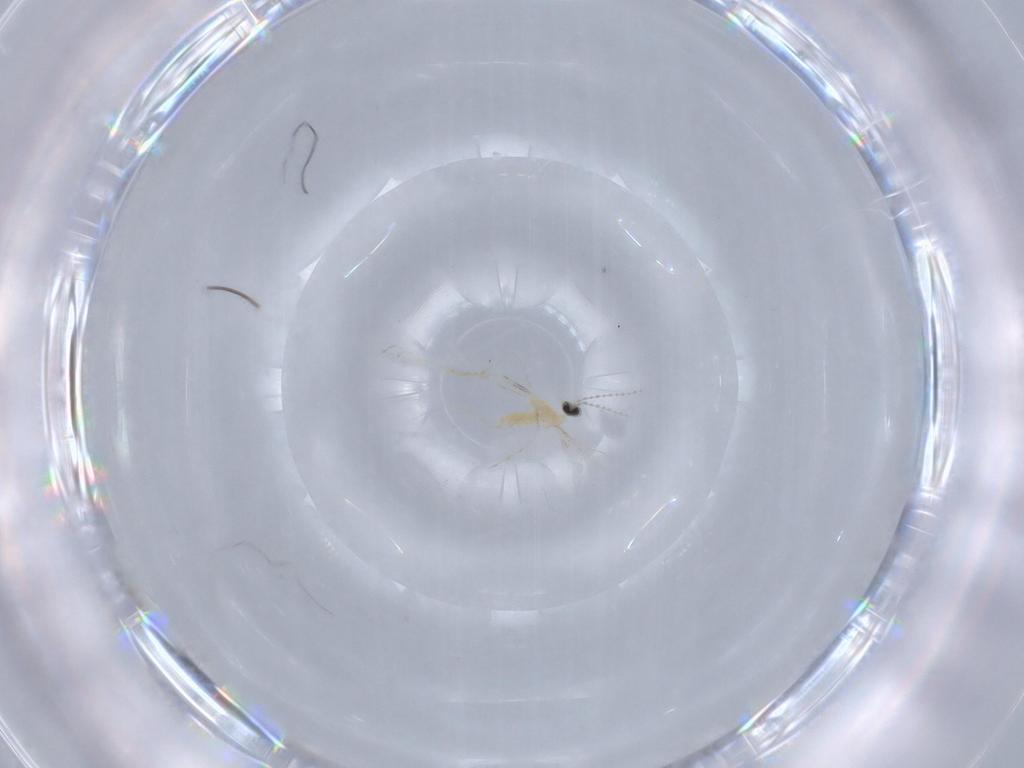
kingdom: Animalia
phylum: Arthropoda
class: Insecta
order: Diptera
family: Cecidomyiidae
